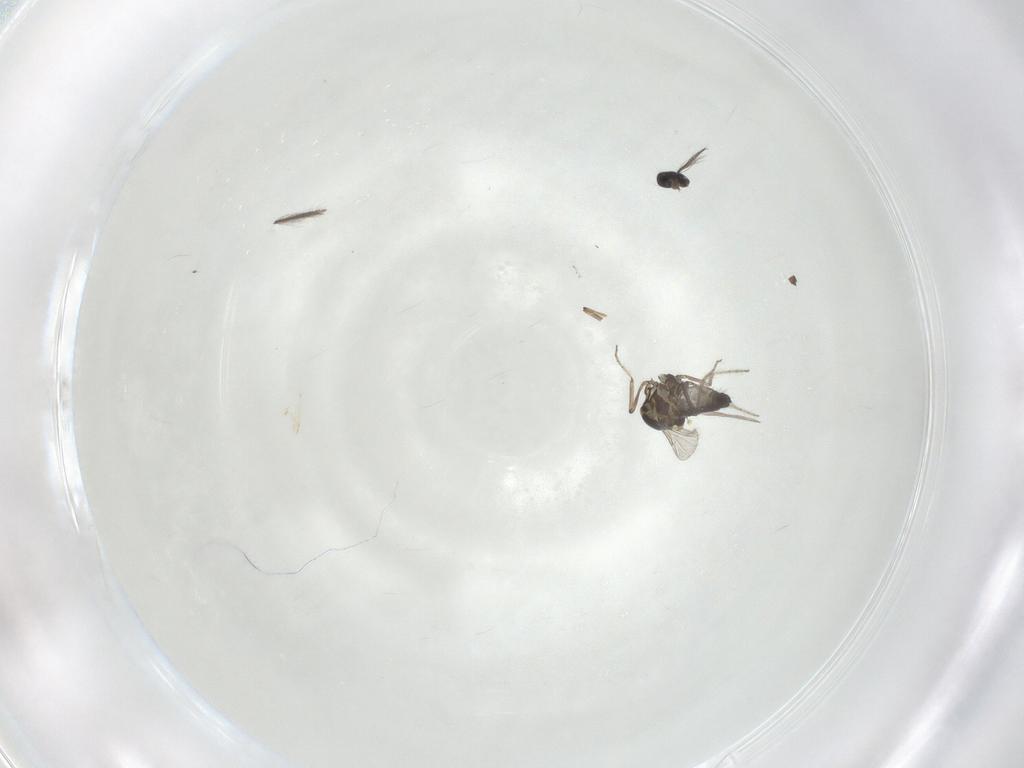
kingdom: Animalia
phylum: Arthropoda
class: Insecta
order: Diptera
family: Ceratopogonidae
